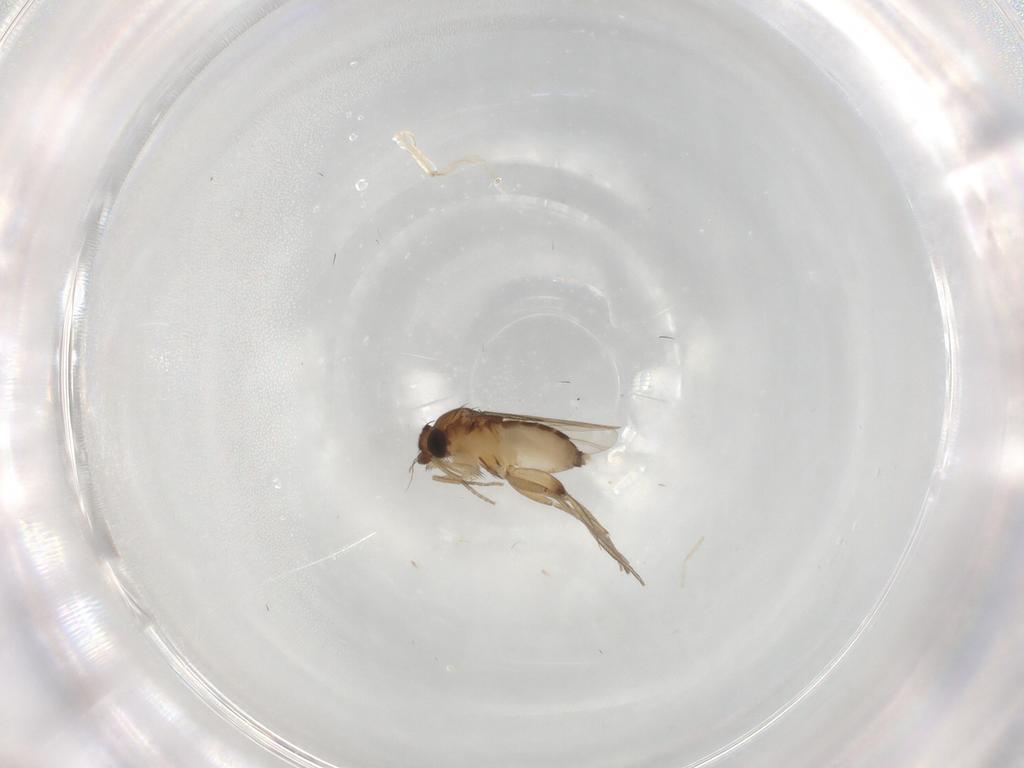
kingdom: Animalia
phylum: Arthropoda
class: Insecta
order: Diptera
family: Phoridae
